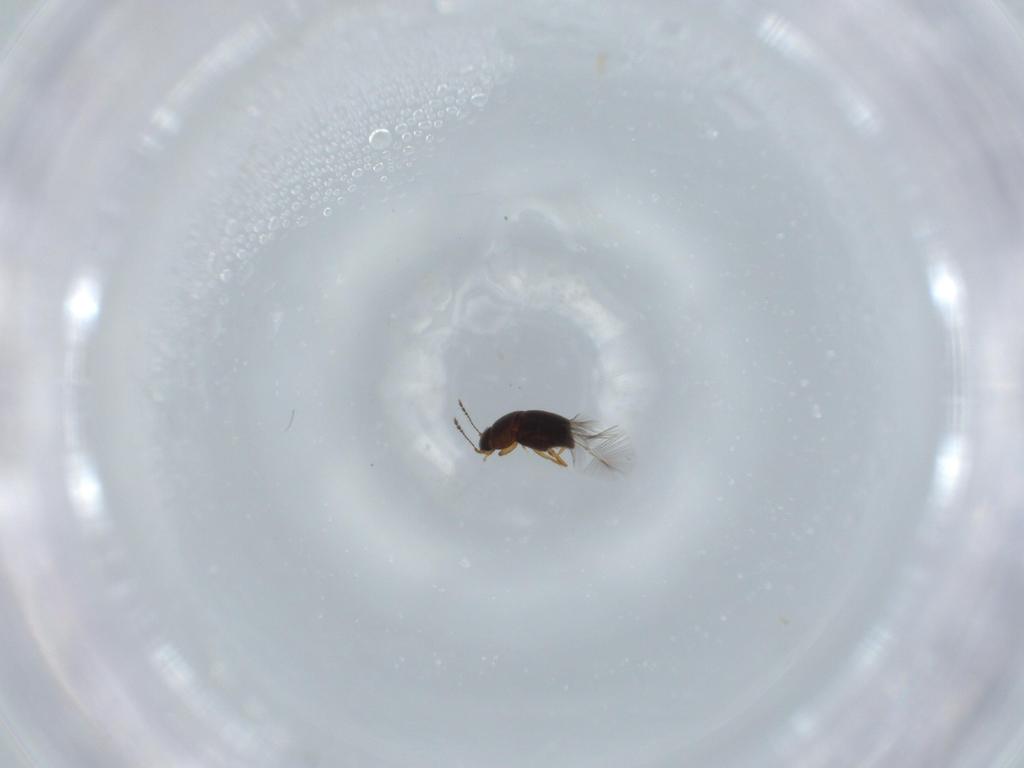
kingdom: Animalia
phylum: Arthropoda
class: Insecta
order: Coleoptera
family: Ptiliidae
